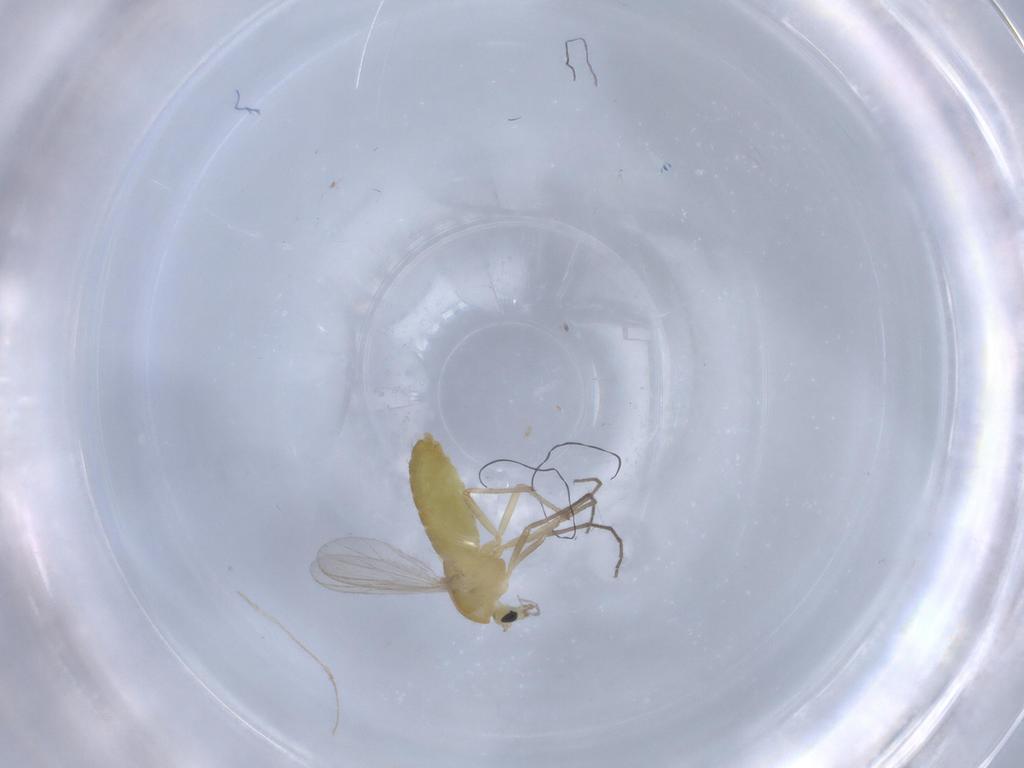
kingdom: Animalia
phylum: Arthropoda
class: Insecta
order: Diptera
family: Chironomidae
